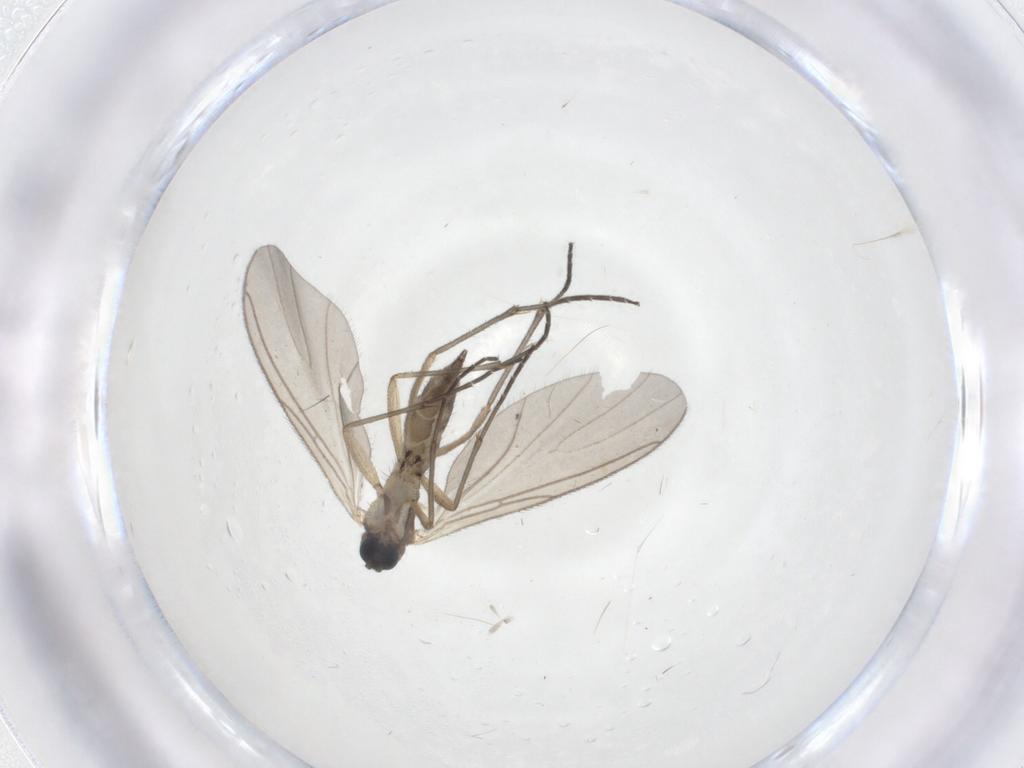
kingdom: Animalia
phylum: Arthropoda
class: Insecta
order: Diptera
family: Sciaridae
